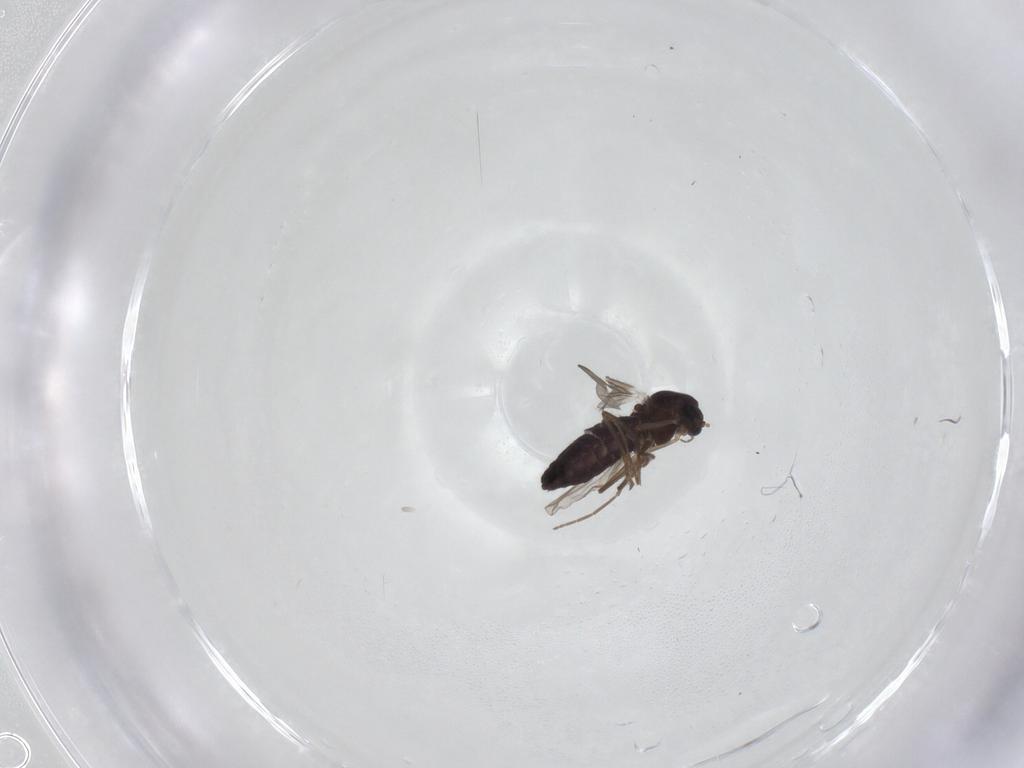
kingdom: Animalia
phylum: Arthropoda
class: Insecta
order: Diptera
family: Chironomidae
